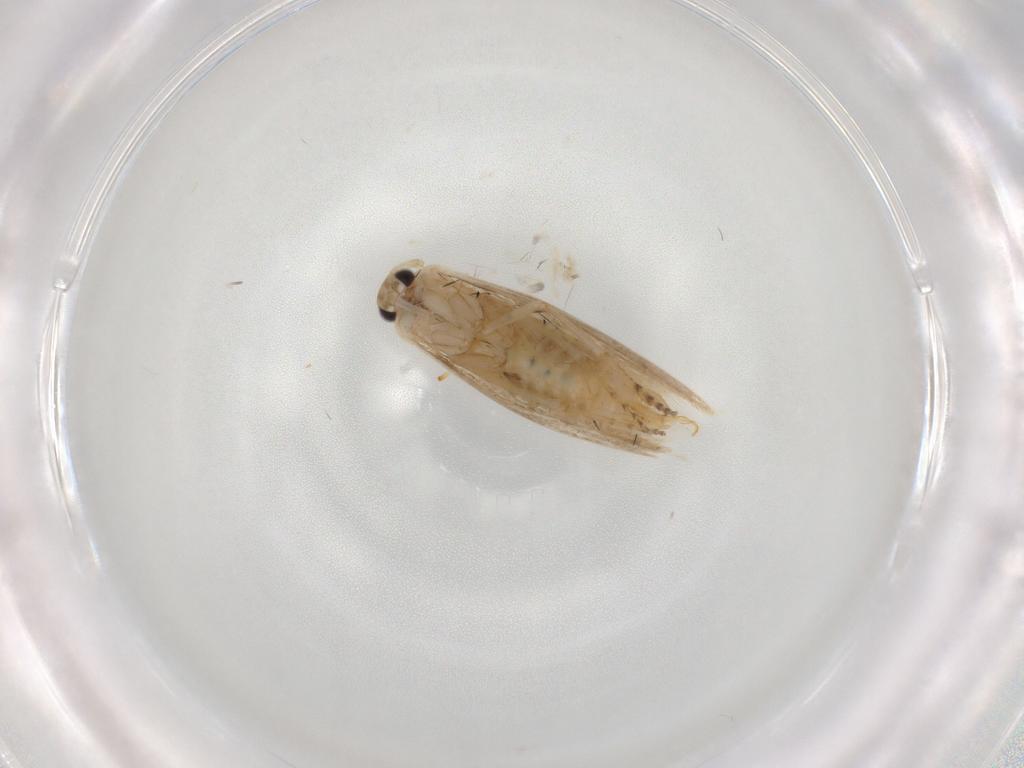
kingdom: Animalia
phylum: Arthropoda
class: Insecta
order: Lepidoptera
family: Bucculatricidae
